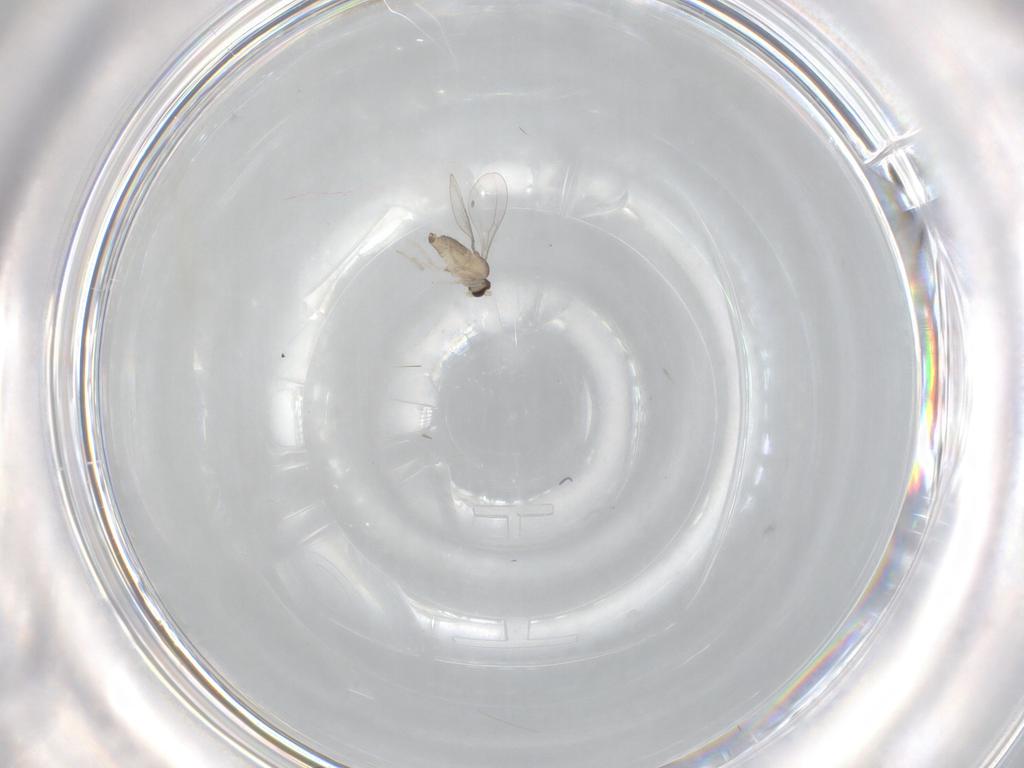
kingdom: Animalia
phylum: Arthropoda
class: Insecta
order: Diptera
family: Cecidomyiidae
